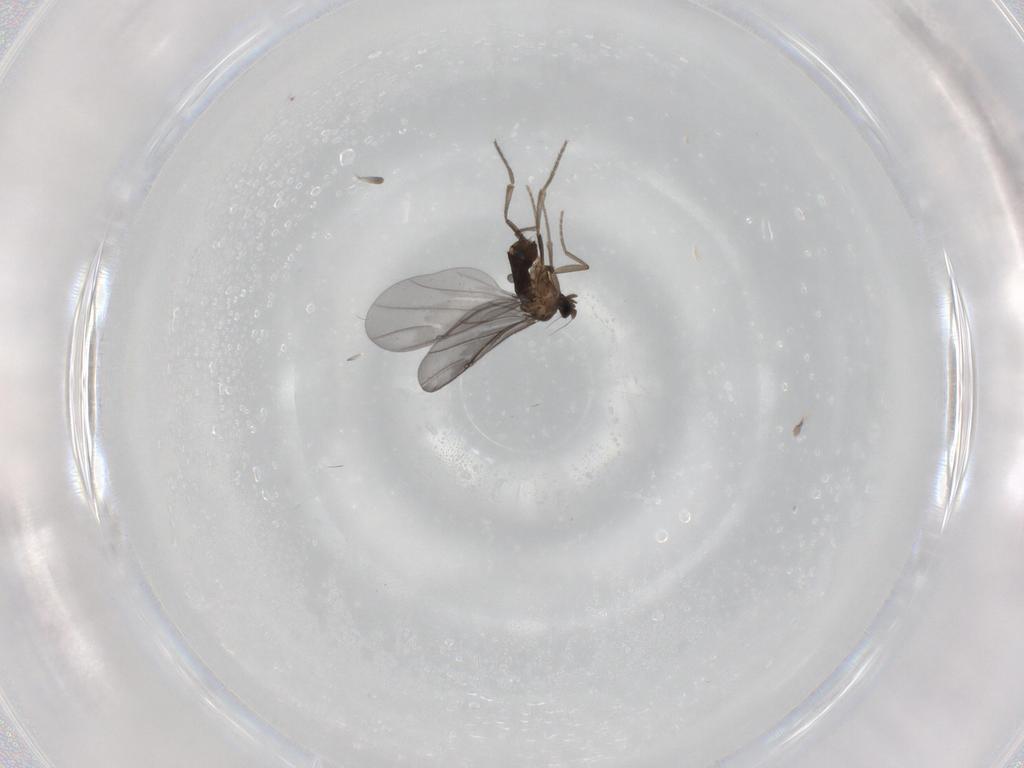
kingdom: Animalia
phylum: Arthropoda
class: Insecta
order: Diptera
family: Phoridae
